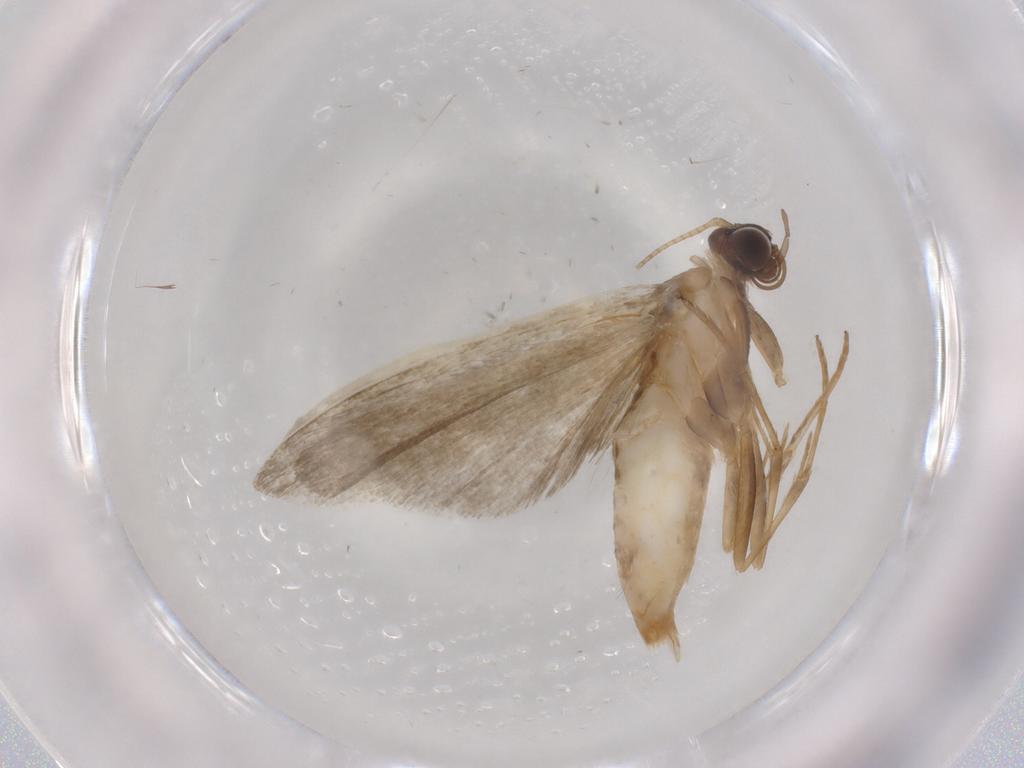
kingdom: Animalia
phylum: Arthropoda
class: Insecta
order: Lepidoptera
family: Noctuidae
